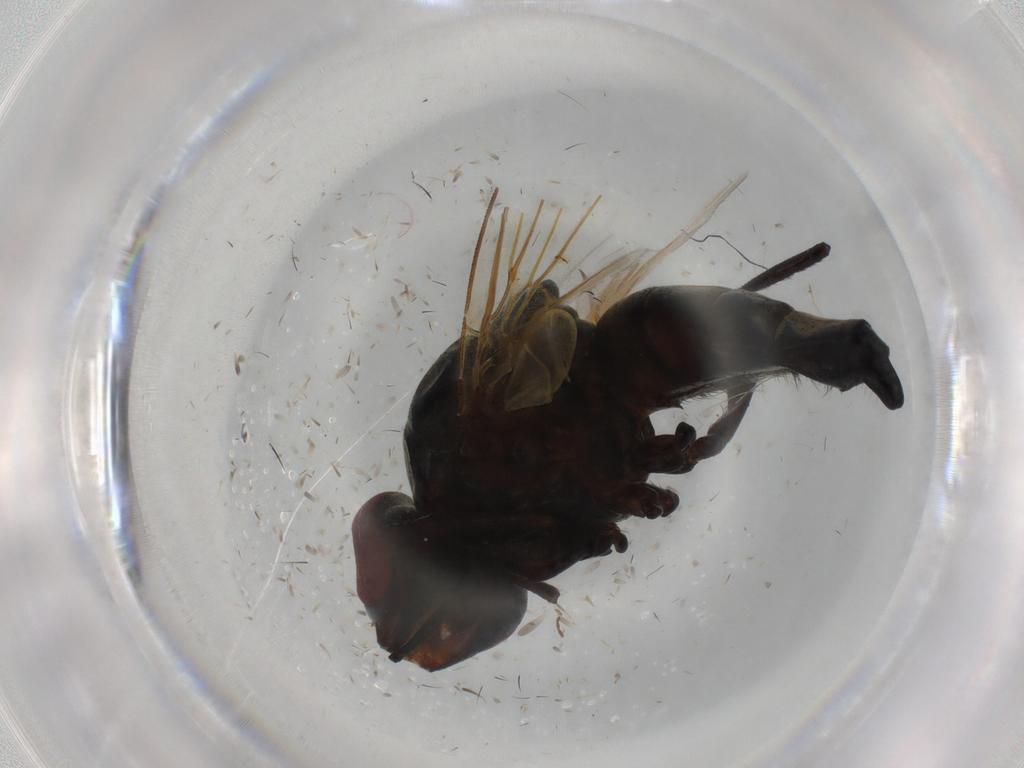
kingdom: Animalia
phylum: Arthropoda
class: Insecta
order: Diptera
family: Tachinidae
